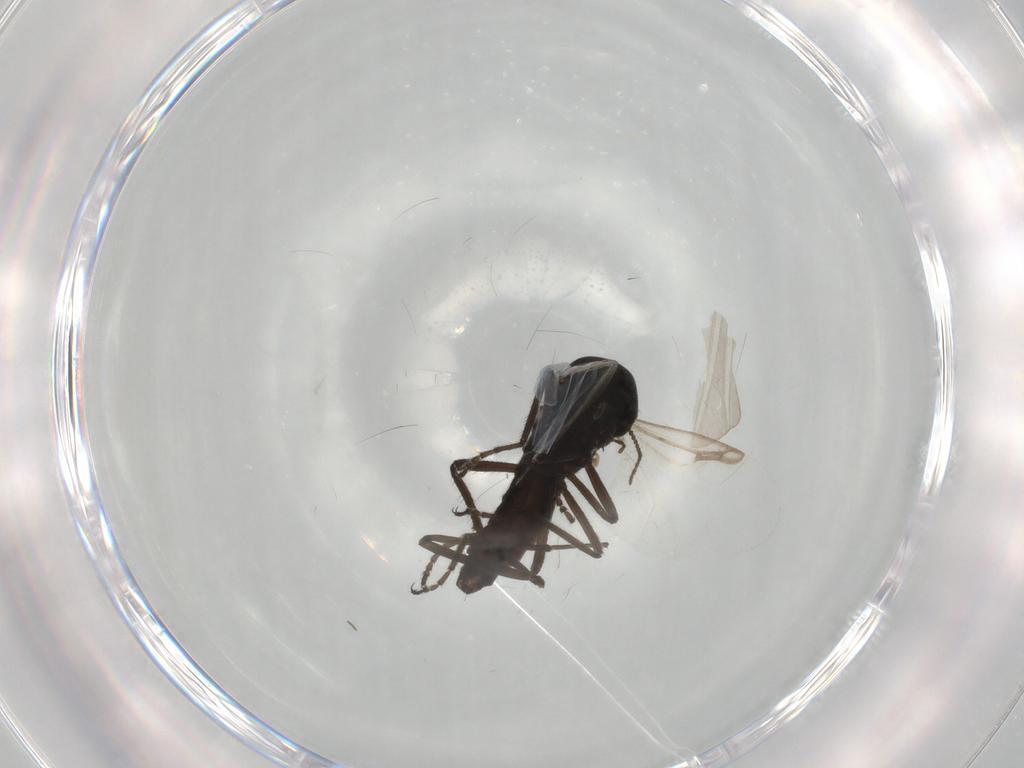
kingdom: Animalia
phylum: Arthropoda
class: Insecta
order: Diptera
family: Ceratopogonidae
